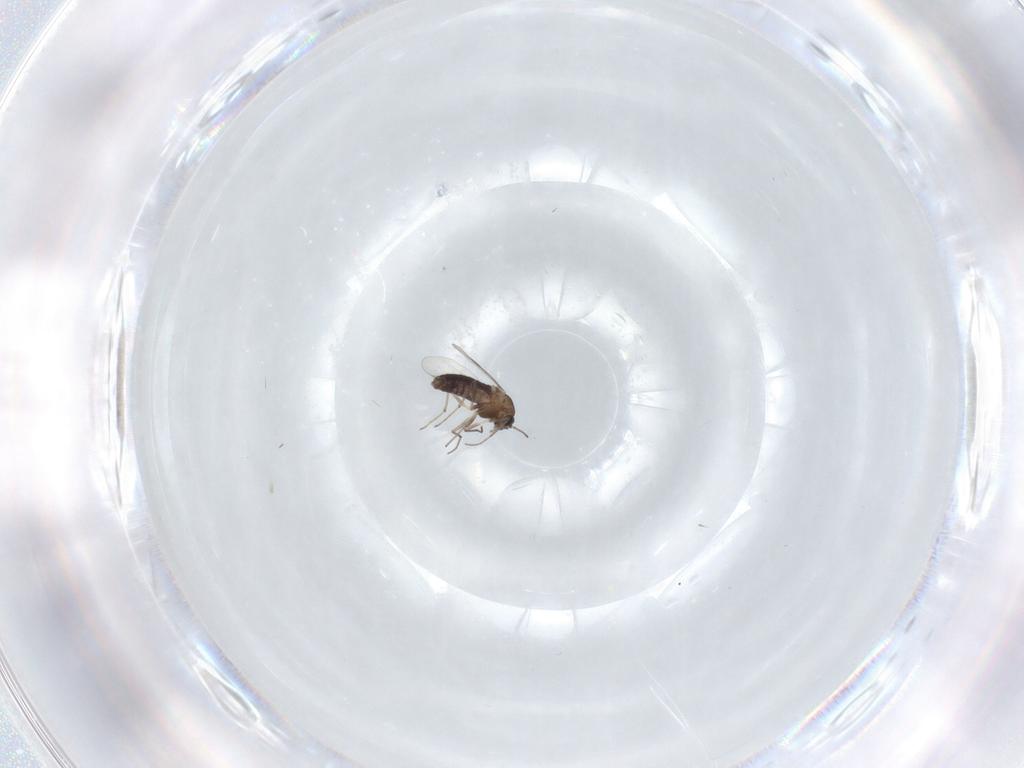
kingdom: Animalia
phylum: Arthropoda
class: Insecta
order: Diptera
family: Chironomidae
